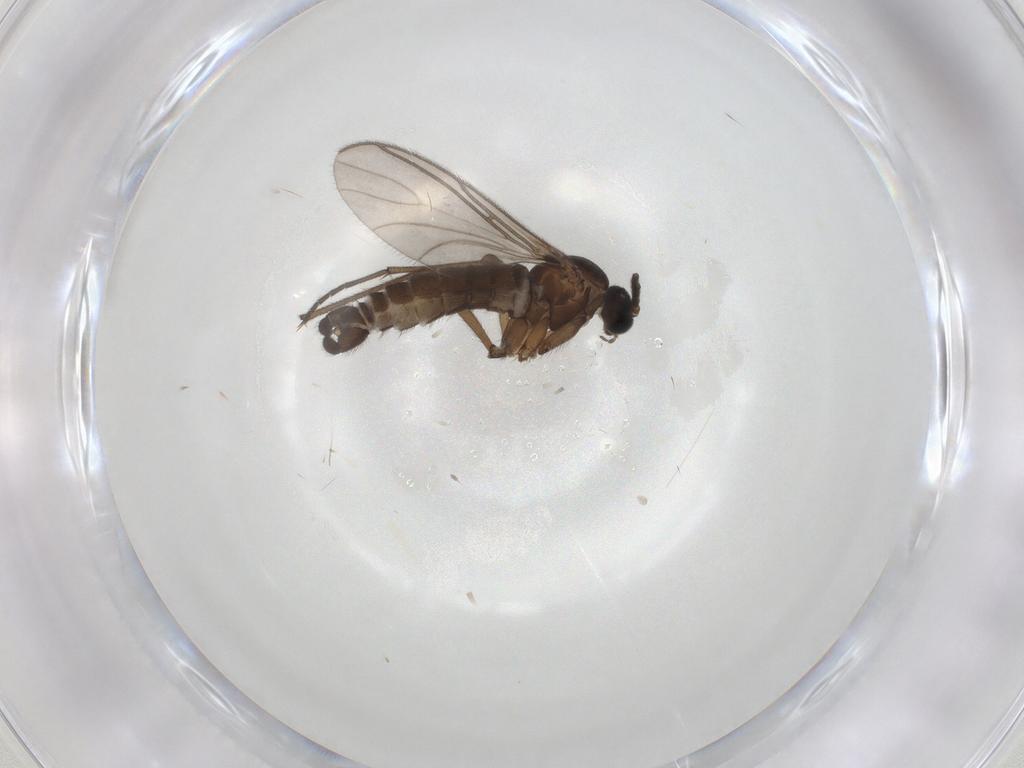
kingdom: Animalia
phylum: Arthropoda
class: Insecta
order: Diptera
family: Sciaridae
